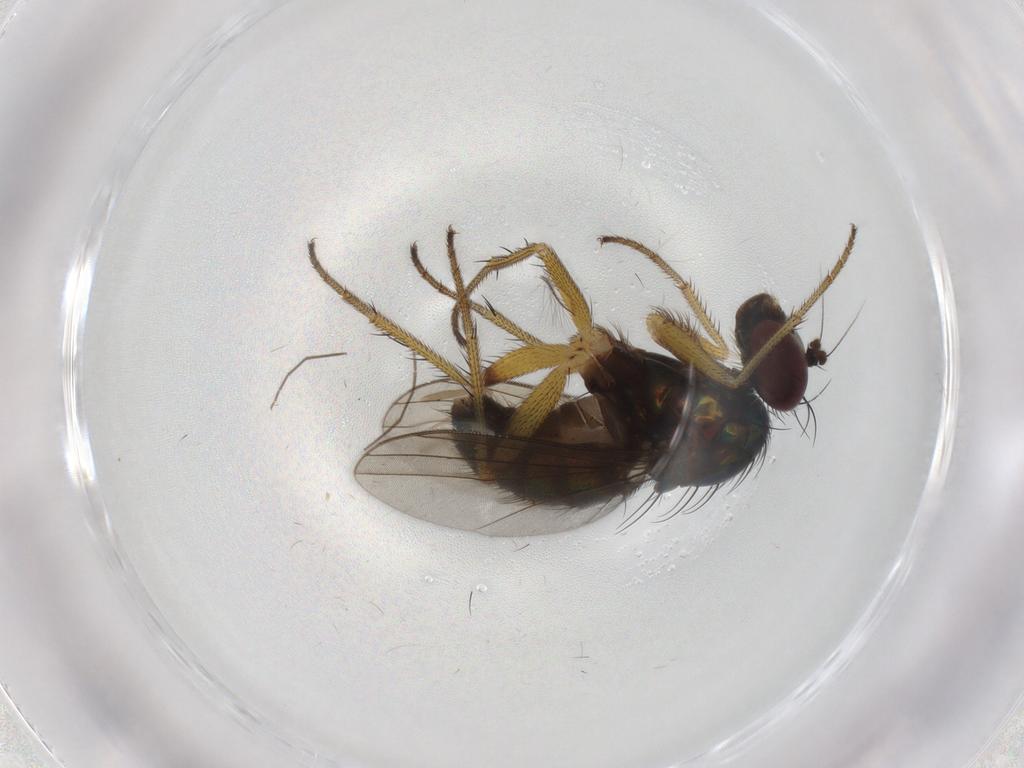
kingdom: Animalia
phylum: Arthropoda
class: Insecta
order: Diptera
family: Dolichopodidae
